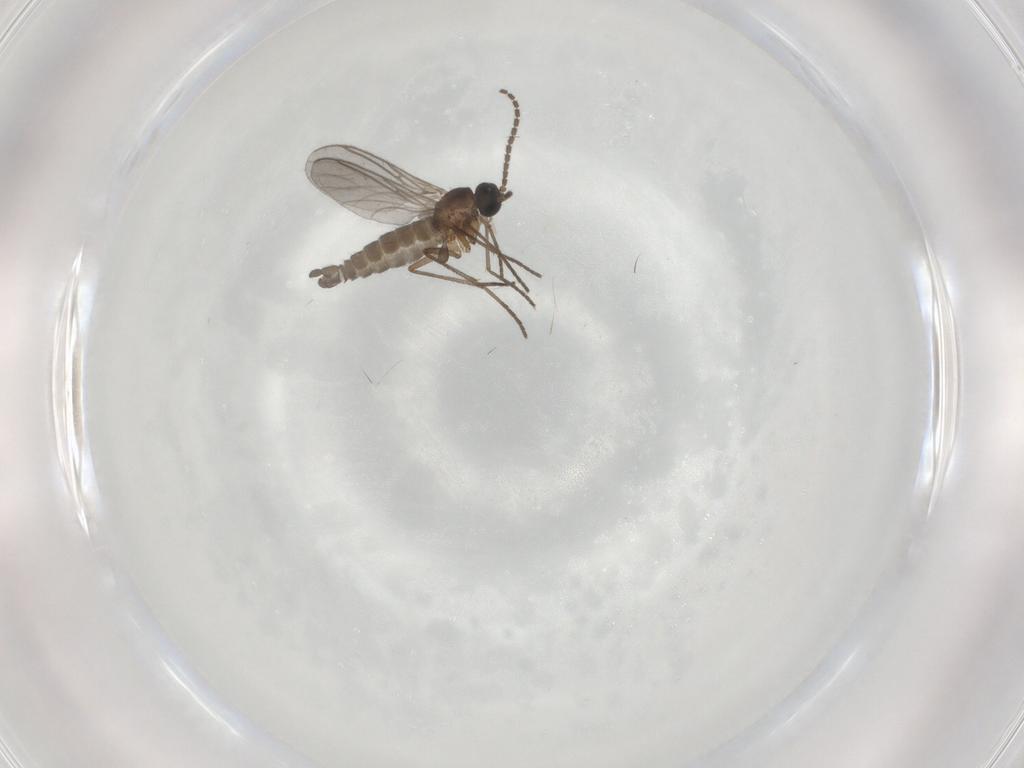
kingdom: Animalia
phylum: Arthropoda
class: Insecta
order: Diptera
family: Sciaridae
